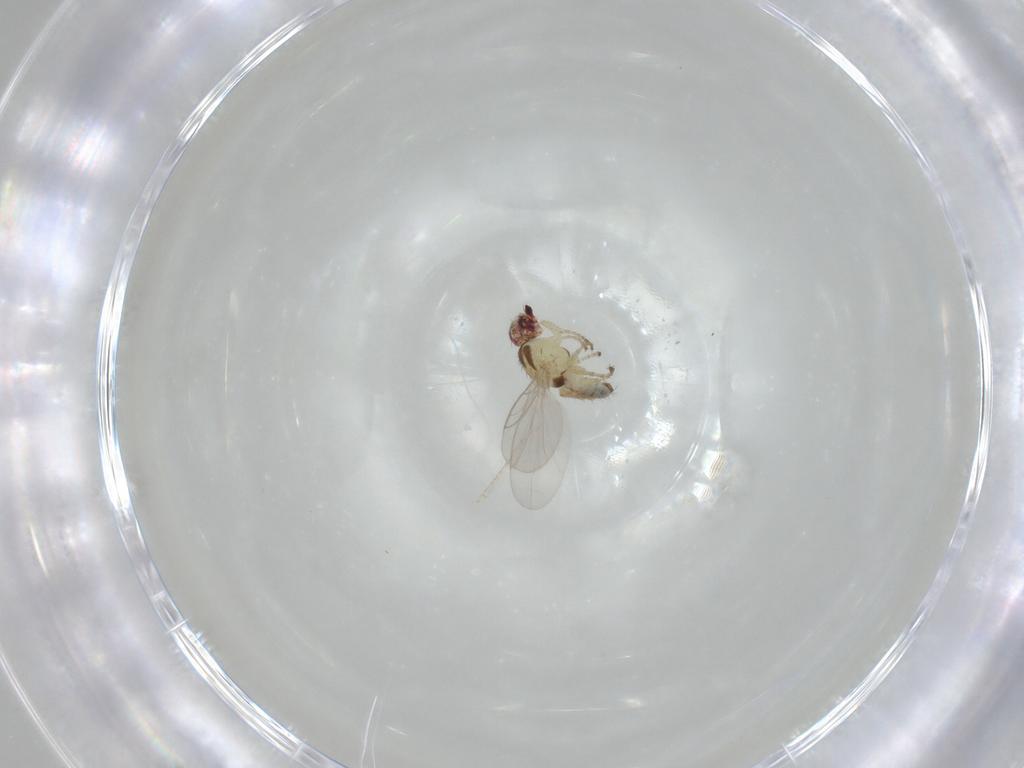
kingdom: Animalia
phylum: Arthropoda
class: Insecta
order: Diptera
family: Agromyzidae
